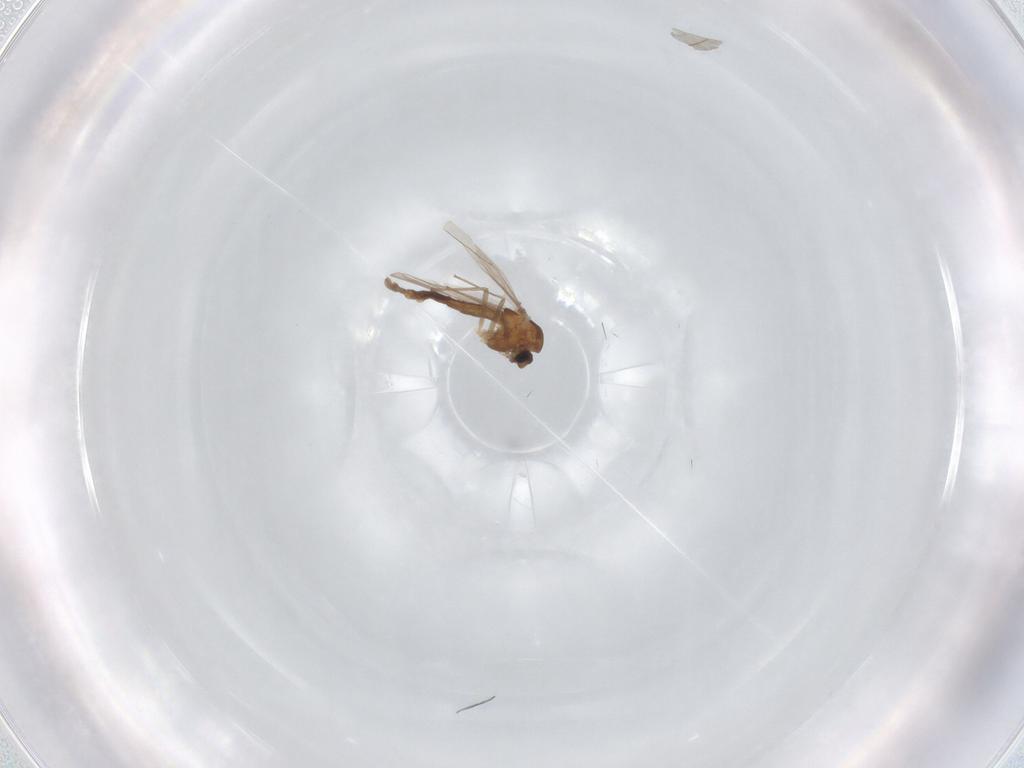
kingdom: Animalia
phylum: Arthropoda
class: Insecta
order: Diptera
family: Chironomidae
